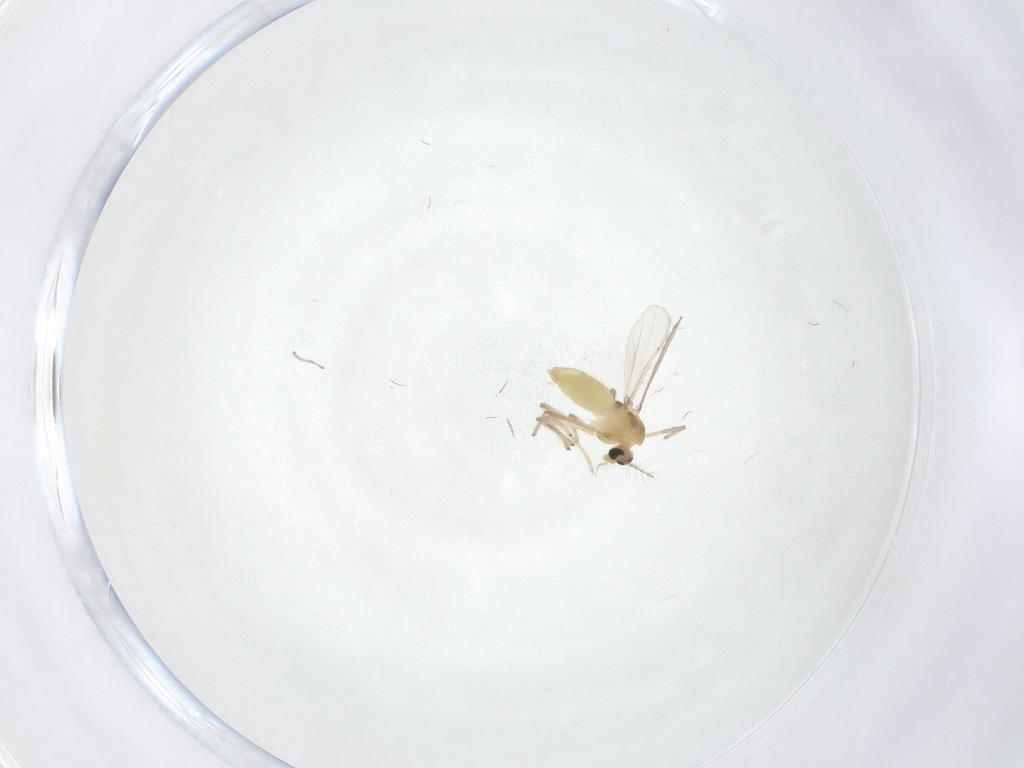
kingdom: Animalia
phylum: Arthropoda
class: Insecta
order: Diptera
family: Chironomidae
